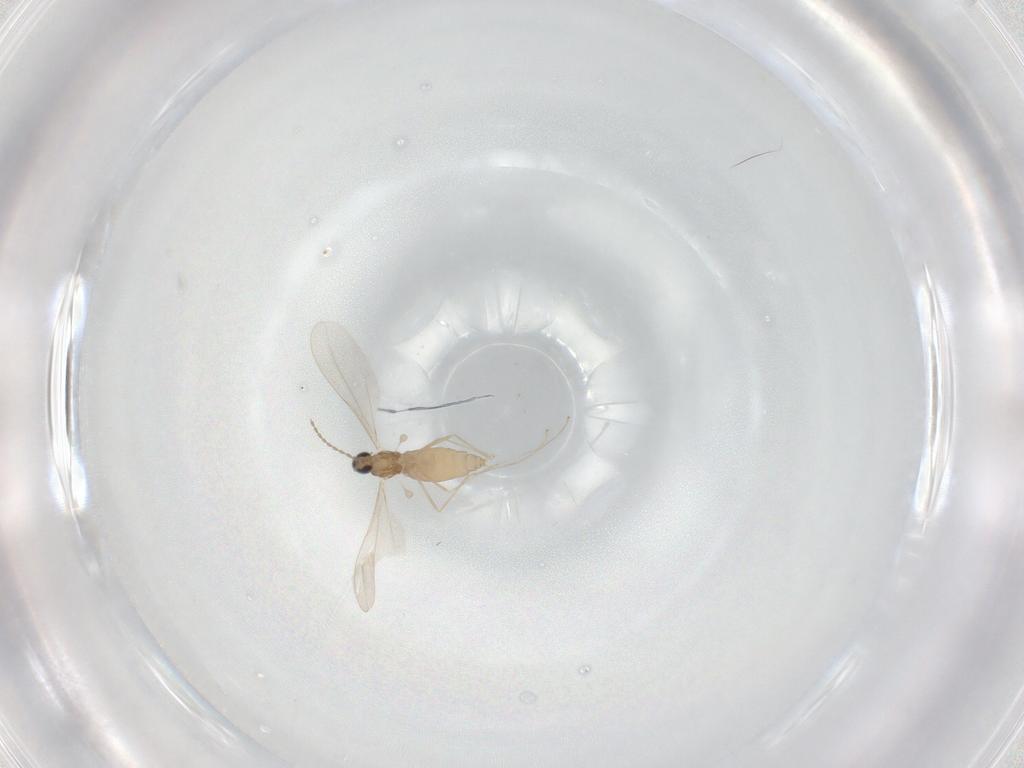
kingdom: Animalia
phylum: Arthropoda
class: Insecta
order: Diptera
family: Cecidomyiidae
